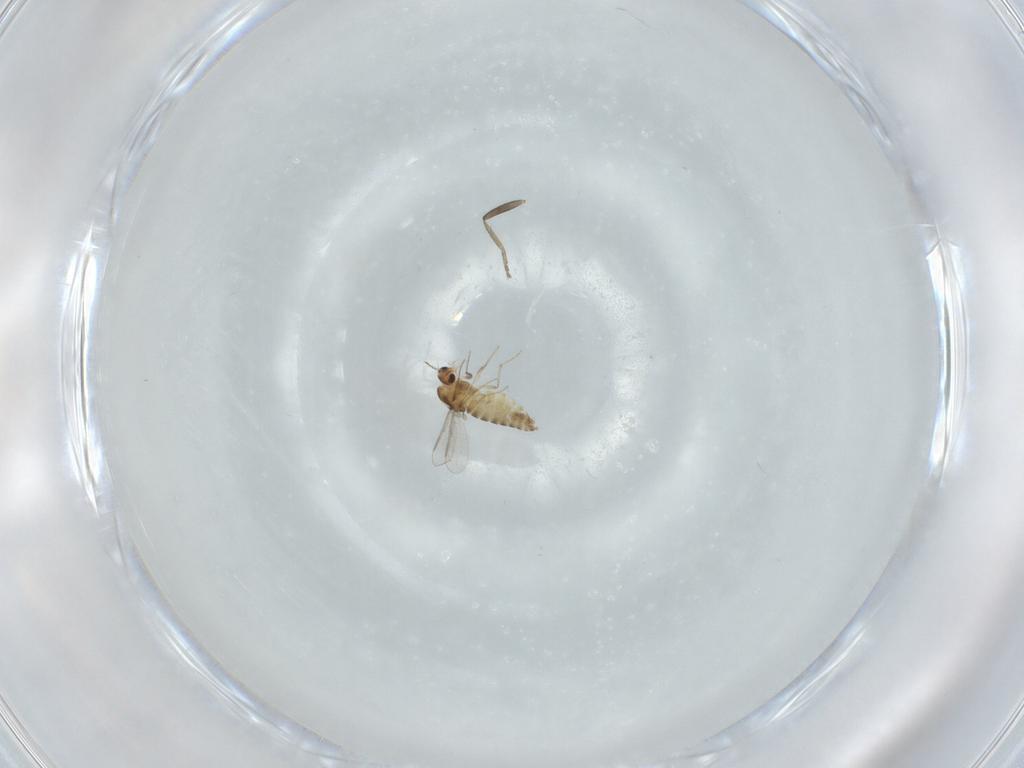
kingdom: Animalia
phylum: Arthropoda
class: Insecta
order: Diptera
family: Chironomidae
